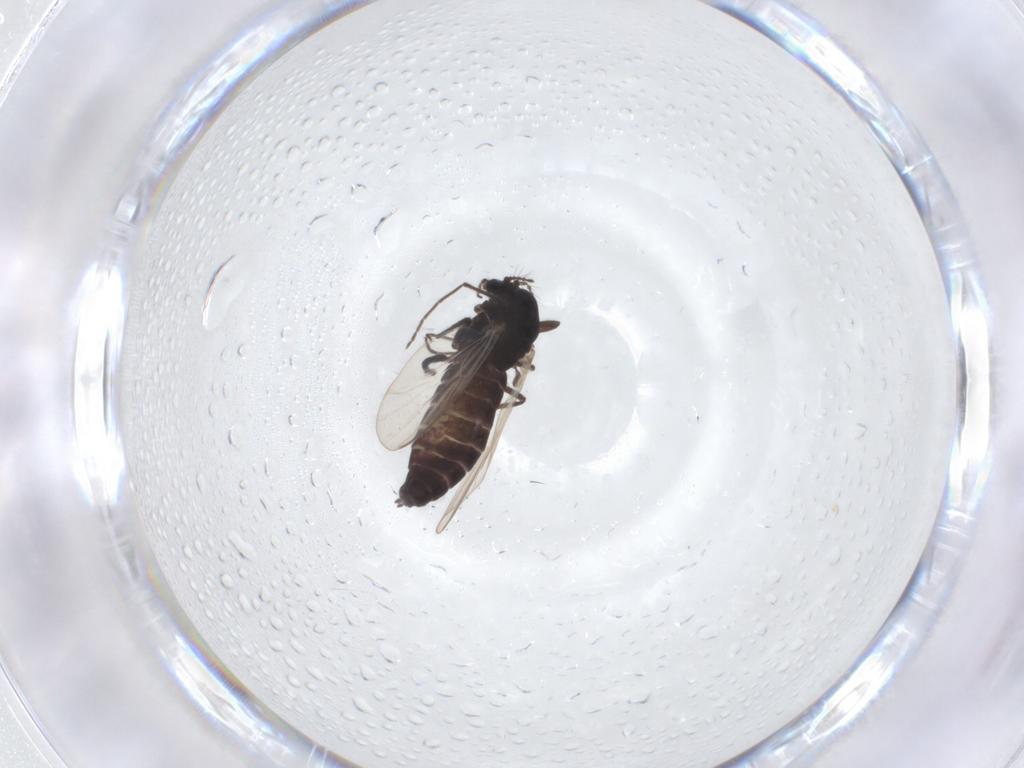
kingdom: Animalia
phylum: Arthropoda
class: Insecta
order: Diptera
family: Chironomidae
